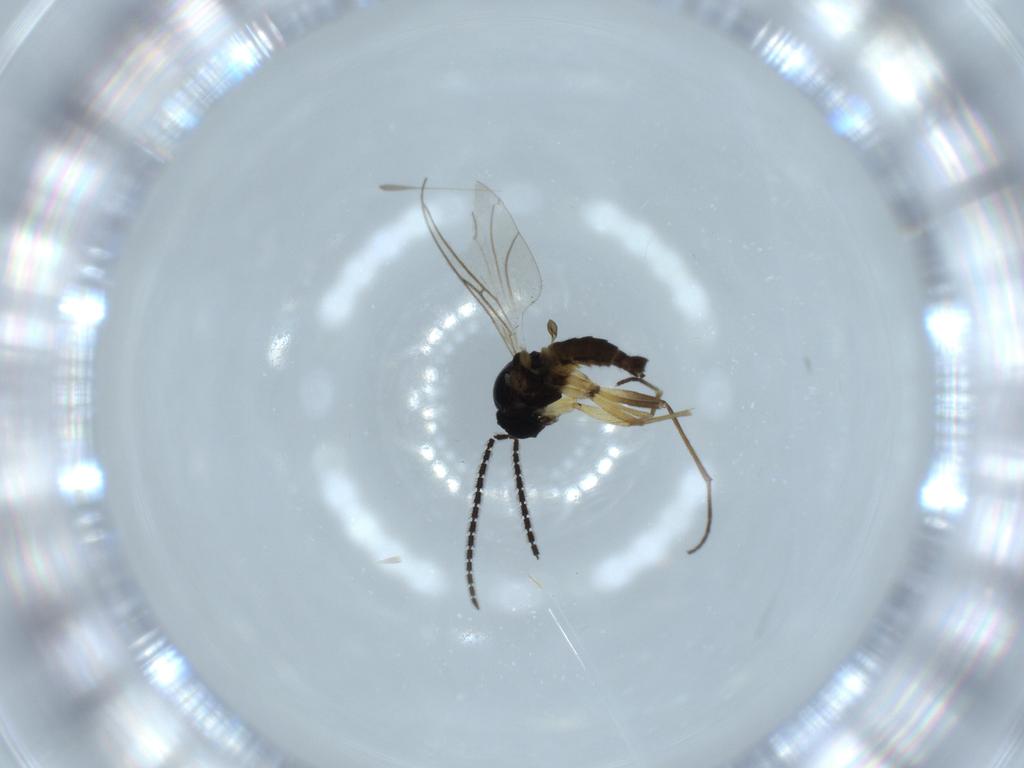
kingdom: Animalia
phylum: Arthropoda
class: Insecta
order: Diptera
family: Sciaridae
